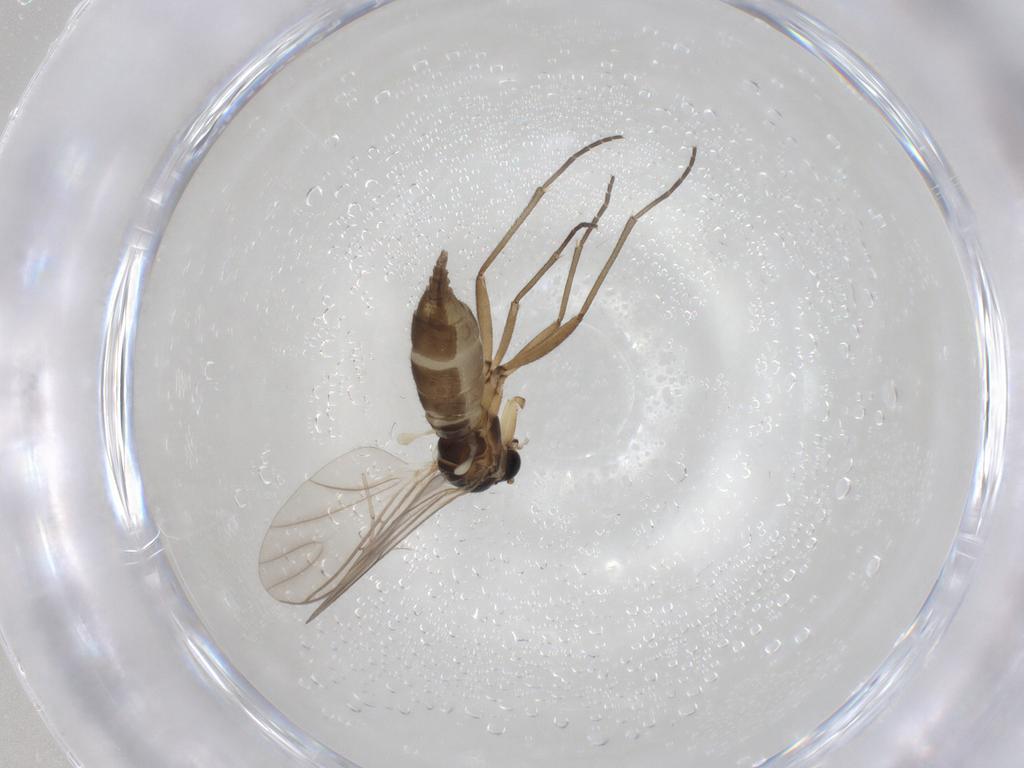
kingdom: Animalia
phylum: Arthropoda
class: Insecta
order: Diptera
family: Cecidomyiidae
